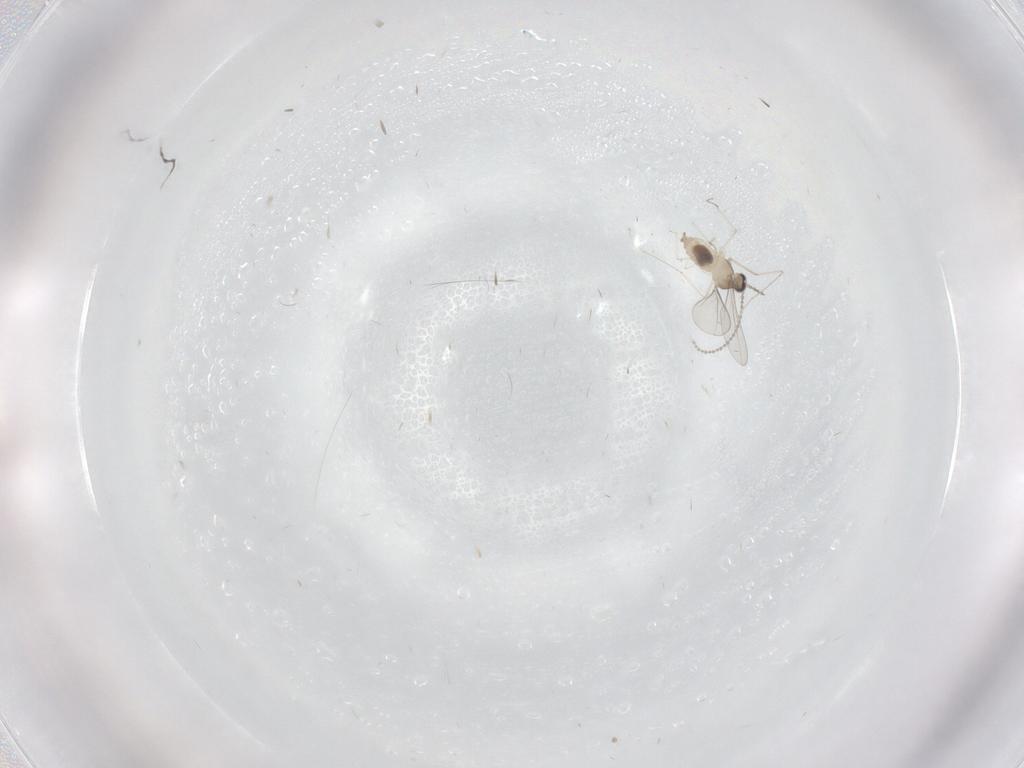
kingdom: Animalia
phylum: Arthropoda
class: Insecta
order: Diptera
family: Cecidomyiidae
